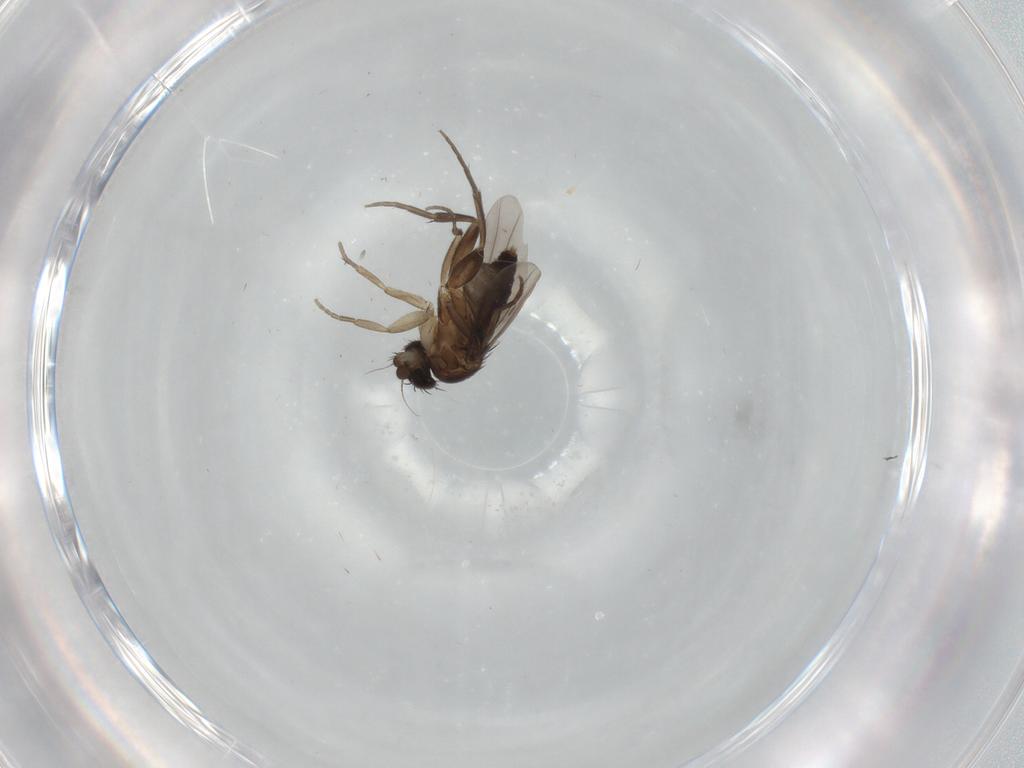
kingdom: Animalia
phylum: Arthropoda
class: Insecta
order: Diptera
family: Phoridae
